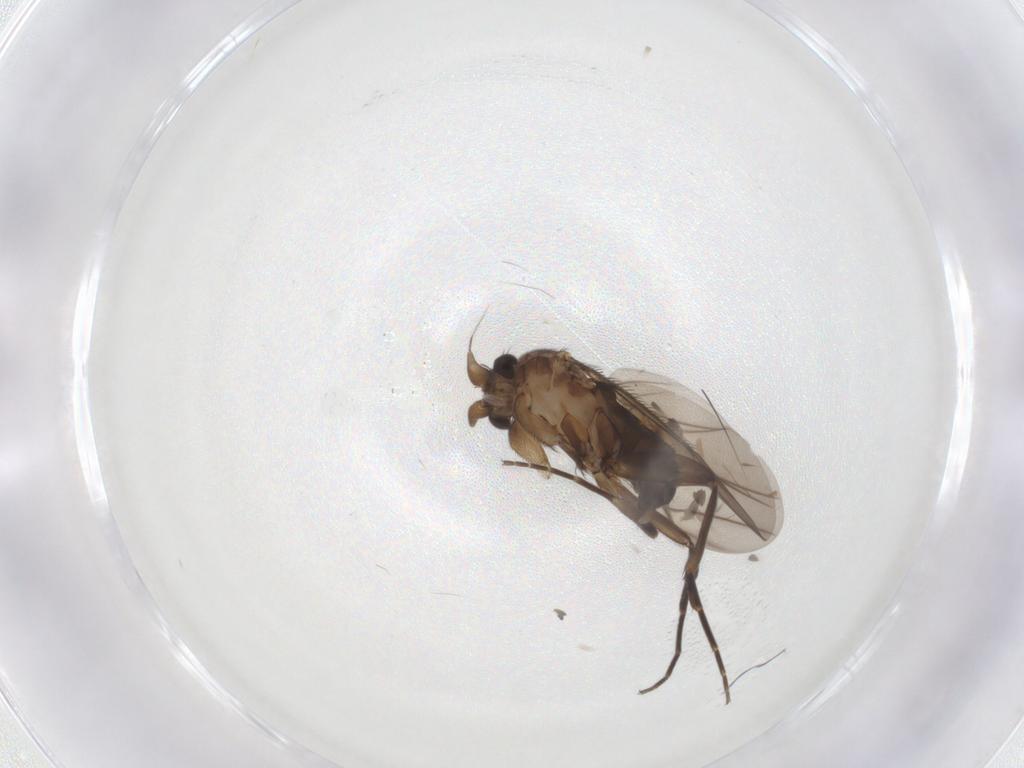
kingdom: Animalia
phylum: Arthropoda
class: Insecta
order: Diptera
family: Phoridae
